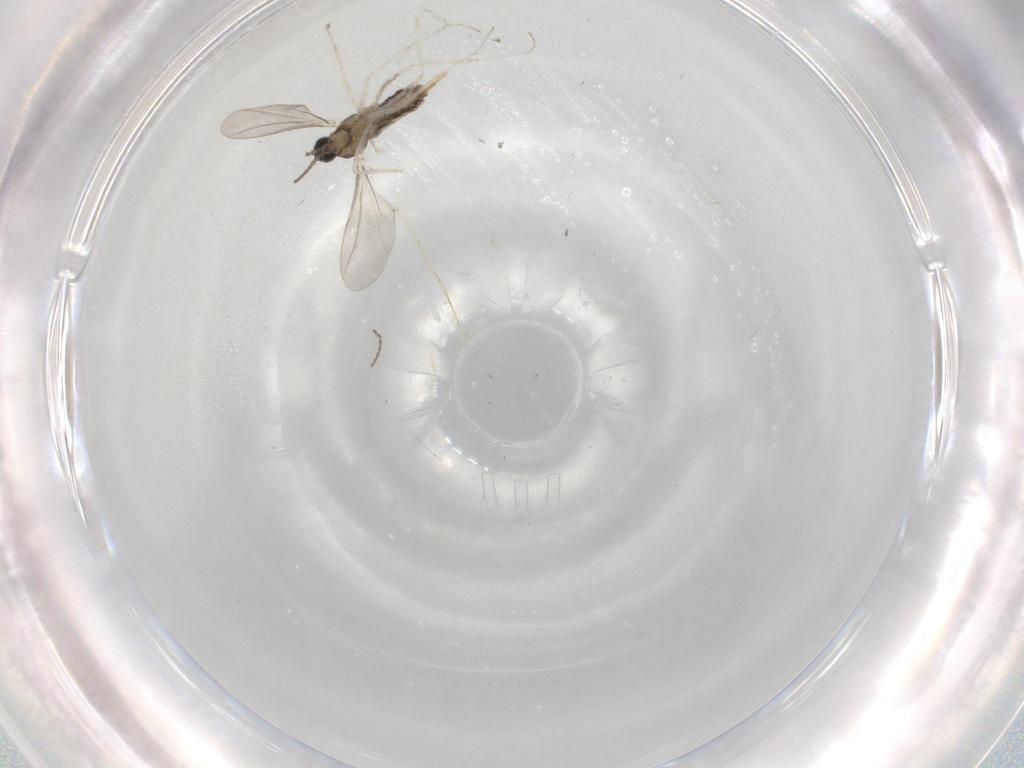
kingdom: Animalia
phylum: Arthropoda
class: Insecta
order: Diptera
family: Cecidomyiidae
